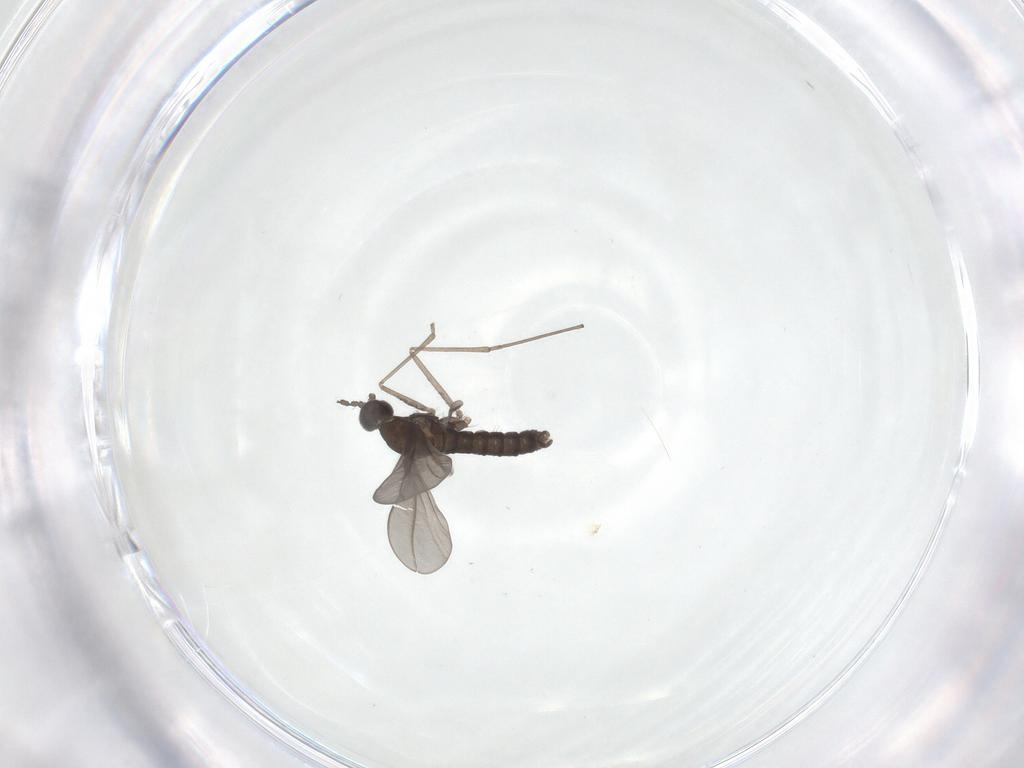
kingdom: Animalia
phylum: Arthropoda
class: Insecta
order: Diptera
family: Cecidomyiidae
